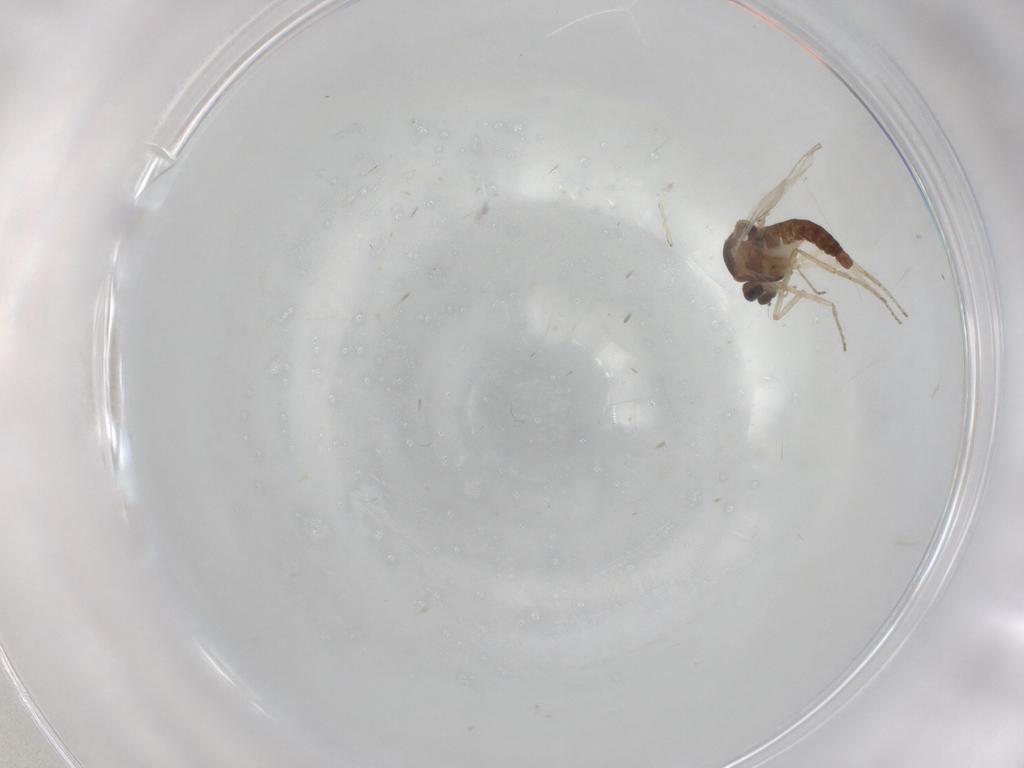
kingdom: Animalia
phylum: Arthropoda
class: Insecta
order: Diptera
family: Ceratopogonidae
